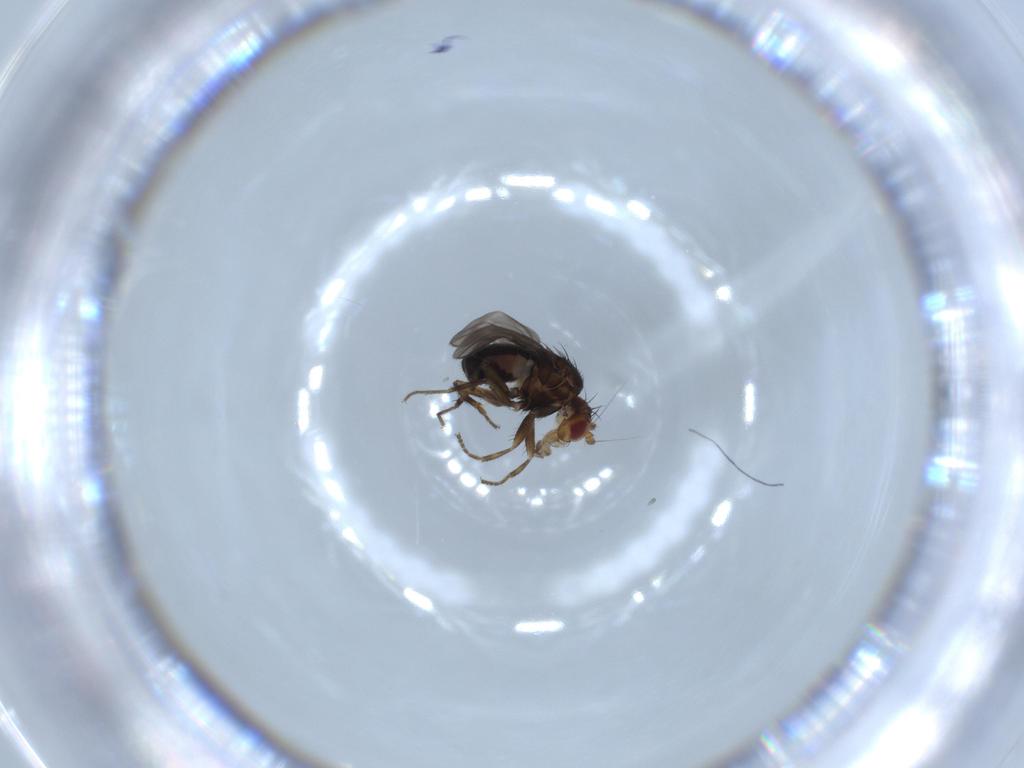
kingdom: Animalia
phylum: Arthropoda
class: Insecta
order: Diptera
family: Sphaeroceridae
